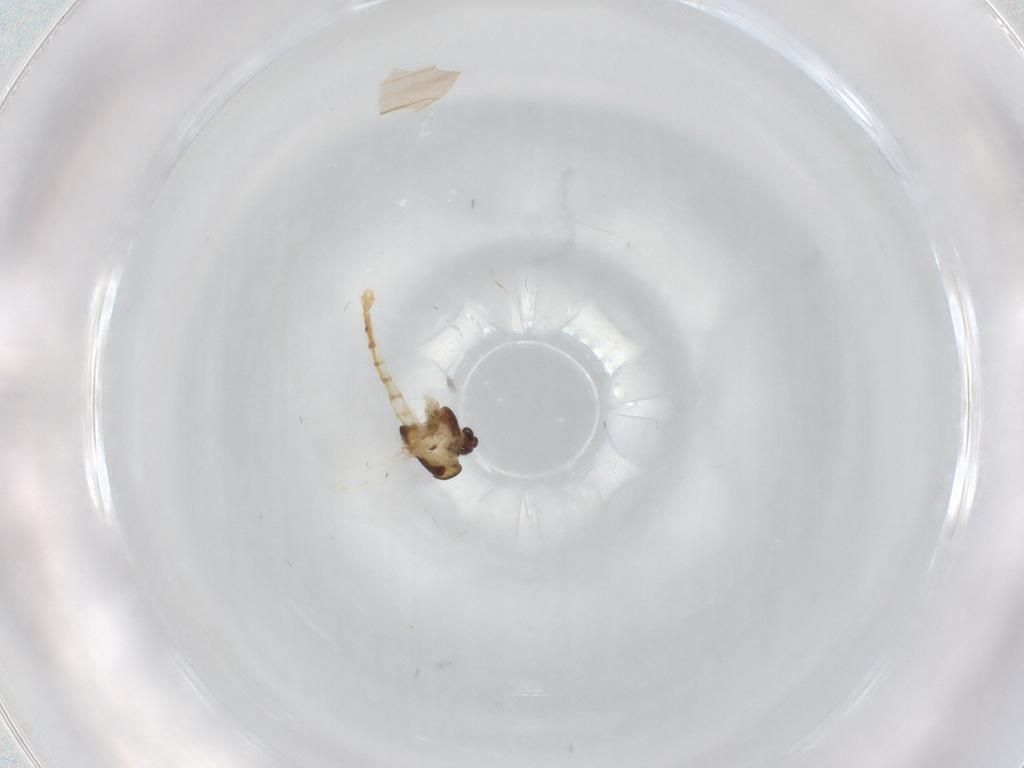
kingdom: Animalia
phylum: Arthropoda
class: Insecta
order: Diptera
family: Chironomidae
